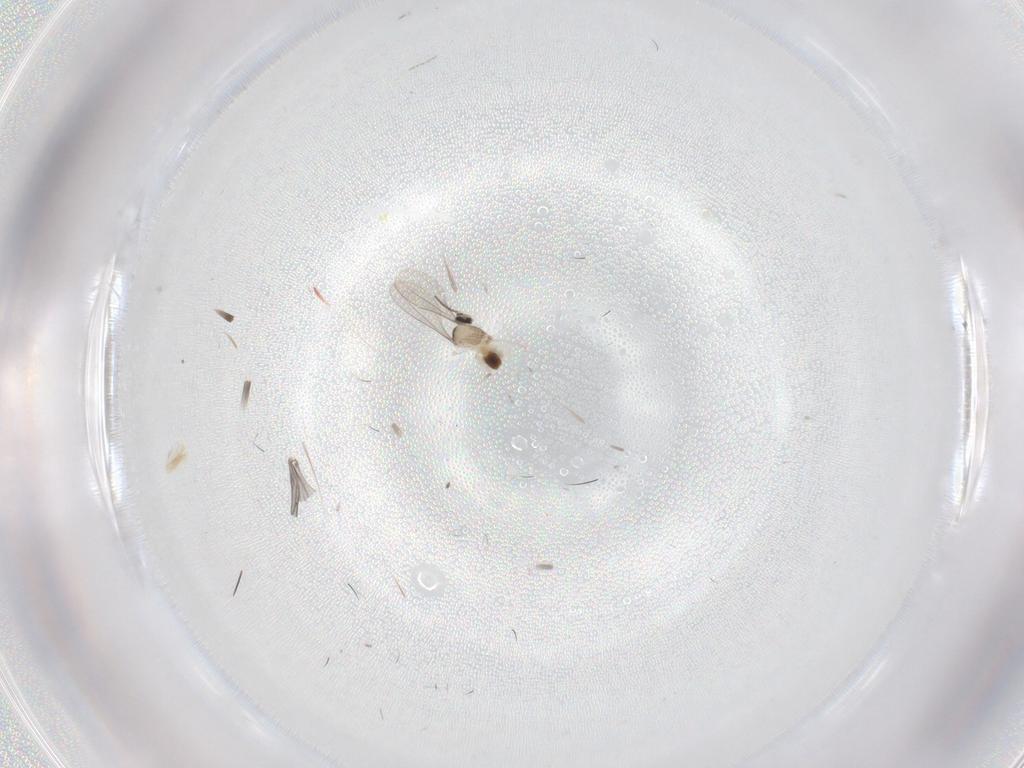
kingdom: Animalia
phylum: Arthropoda
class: Insecta
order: Diptera
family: Cecidomyiidae
